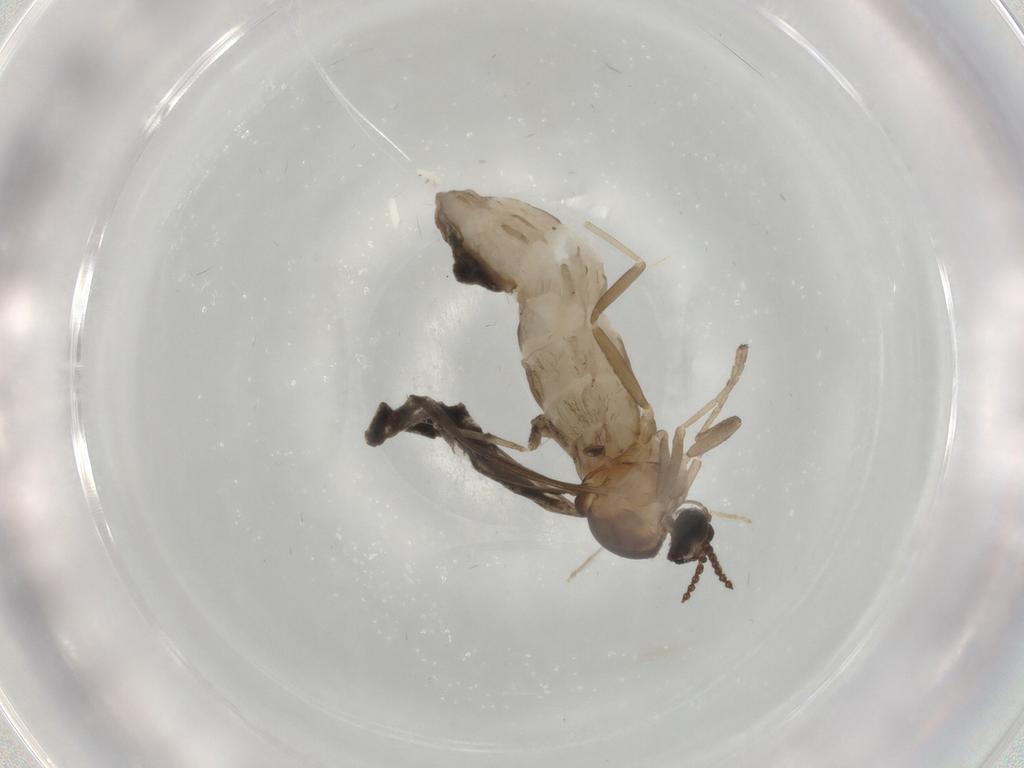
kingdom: Animalia
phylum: Arthropoda
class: Insecta
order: Diptera
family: Cecidomyiidae
